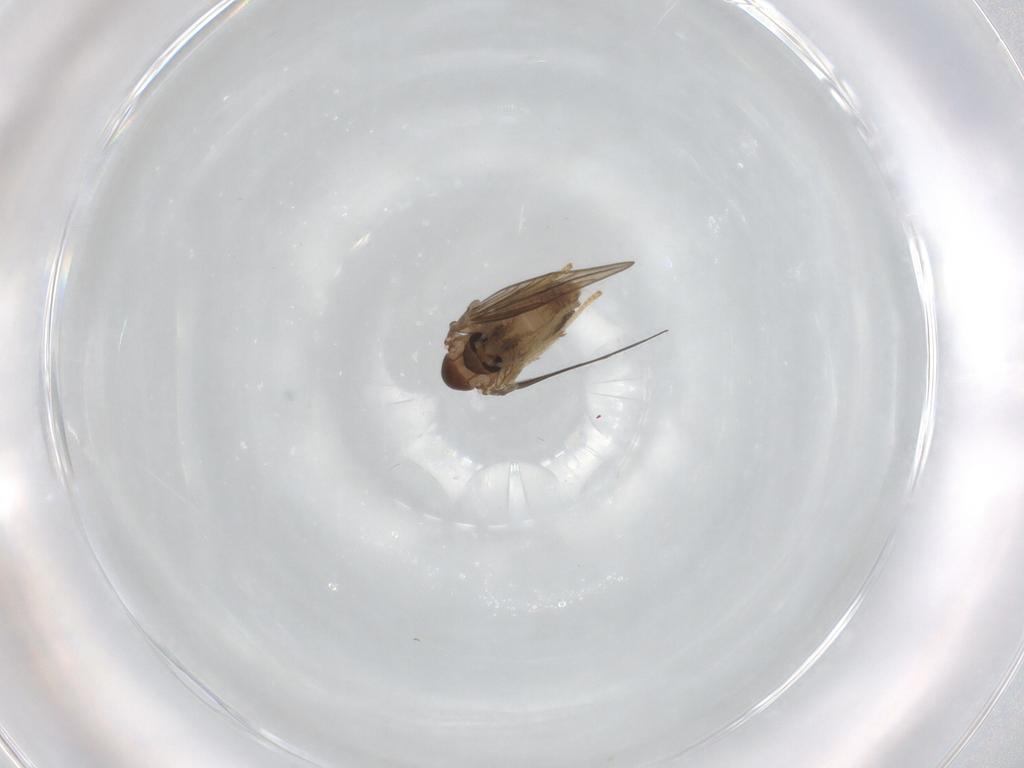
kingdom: Animalia
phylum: Arthropoda
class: Insecta
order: Diptera
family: Psychodidae
